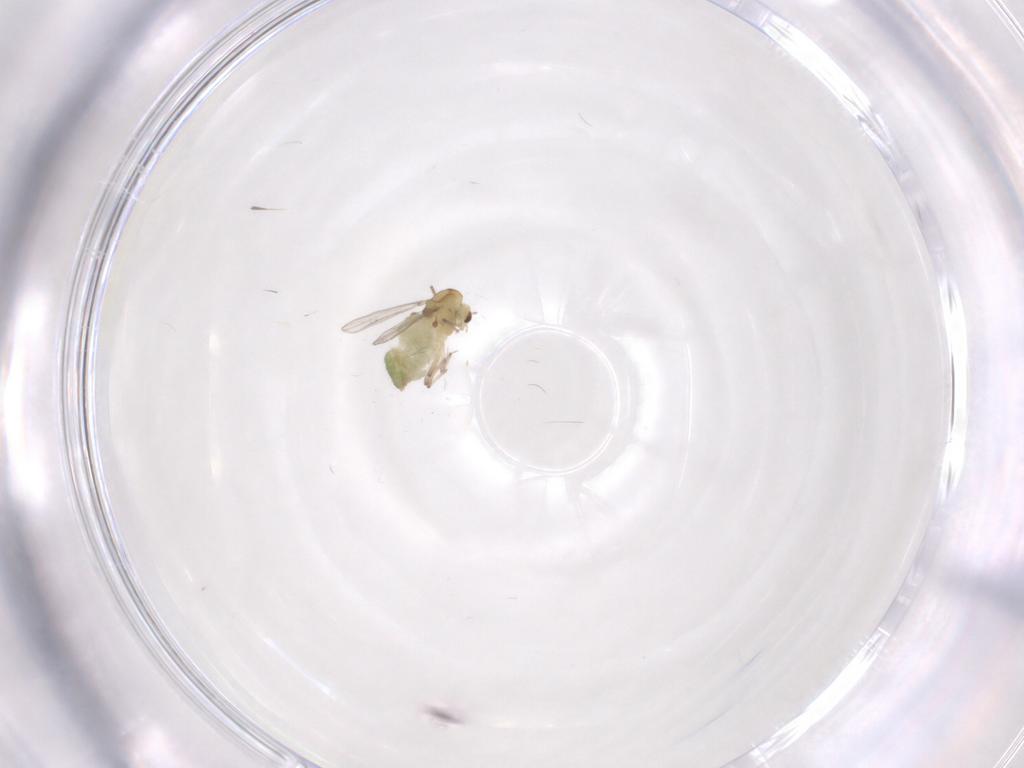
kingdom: Animalia
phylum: Arthropoda
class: Insecta
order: Diptera
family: Chironomidae
